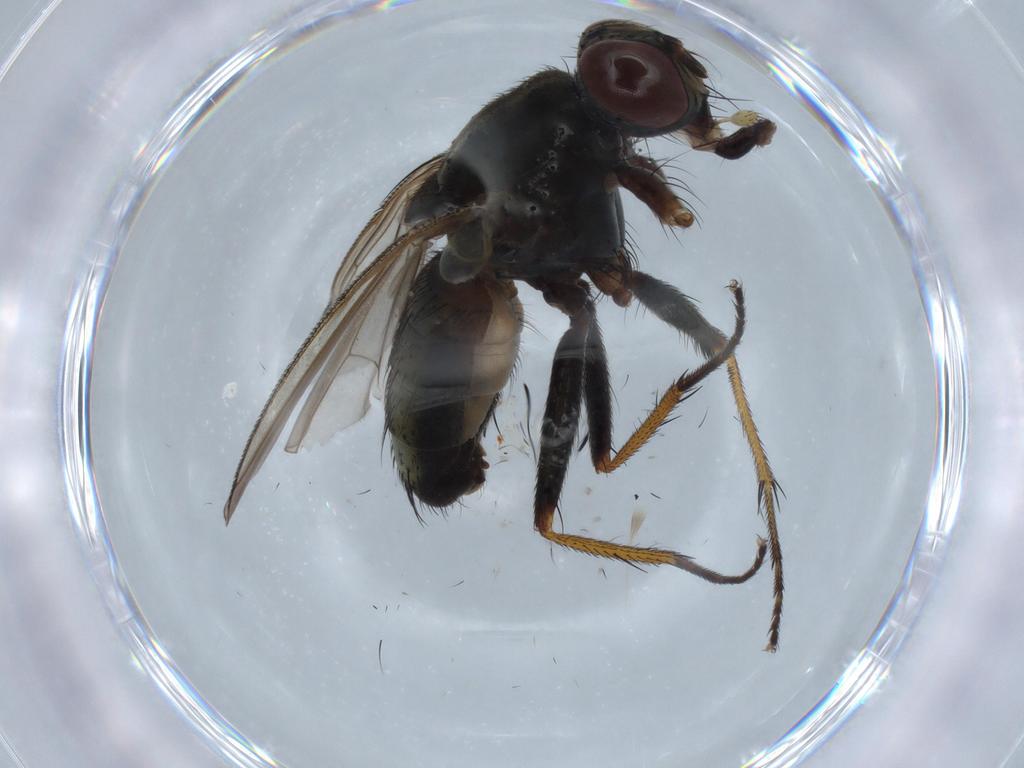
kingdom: Animalia
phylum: Arthropoda
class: Insecta
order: Diptera
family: Muscidae
